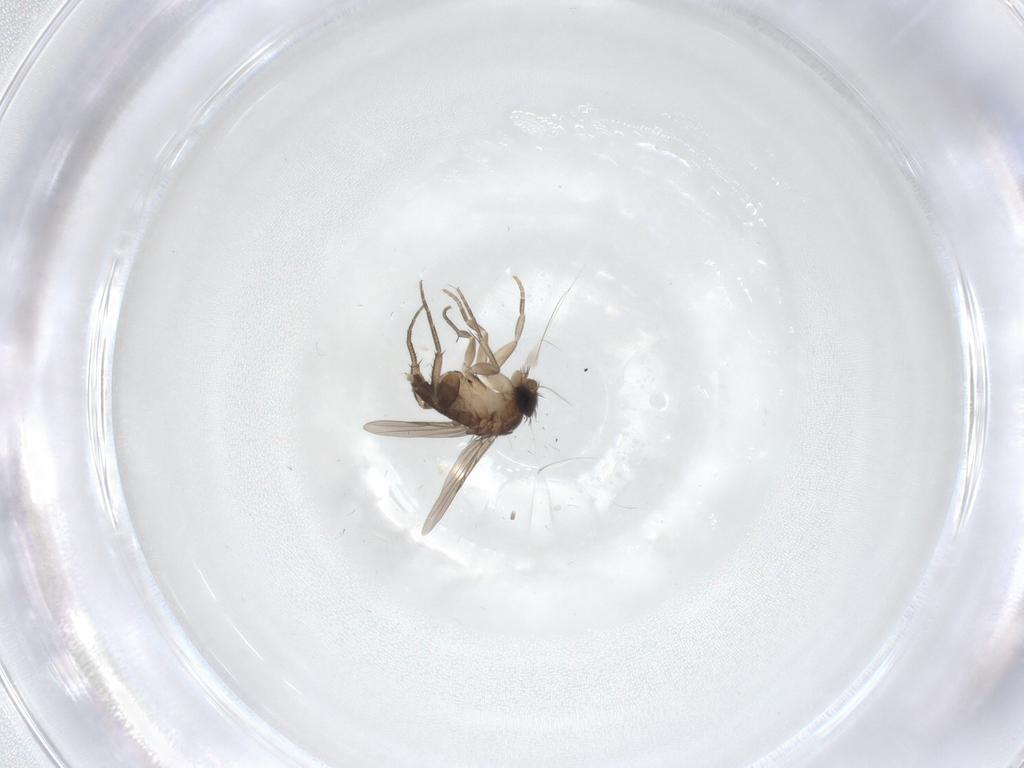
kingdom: Animalia
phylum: Arthropoda
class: Insecta
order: Diptera
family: Phoridae
